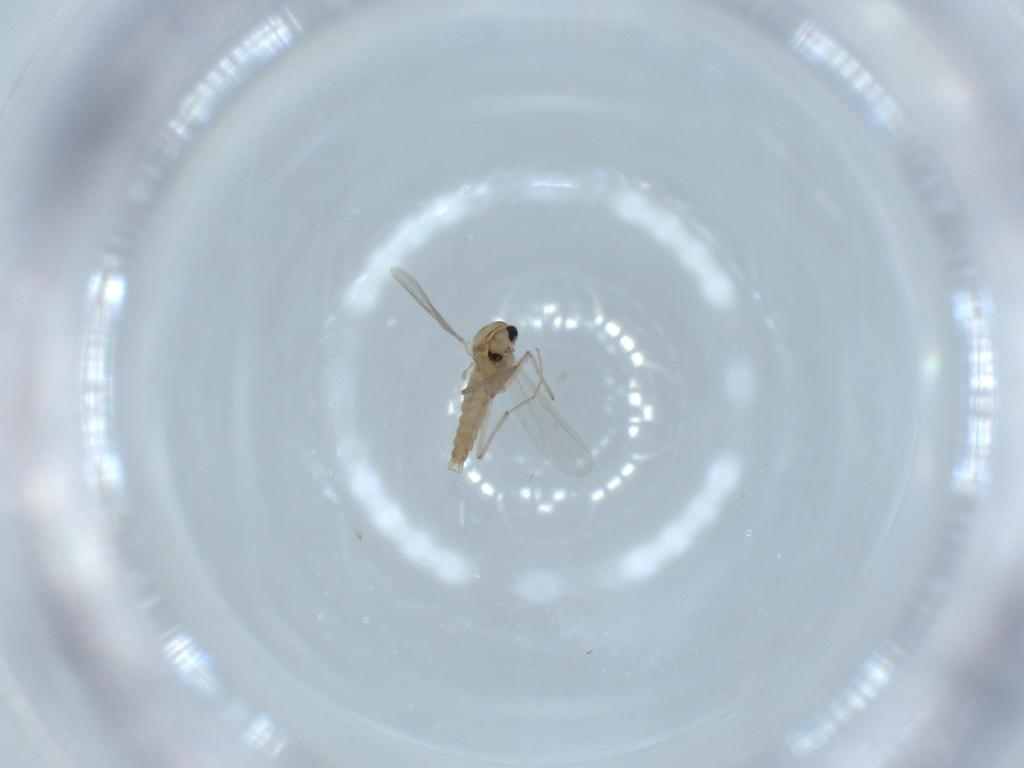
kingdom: Animalia
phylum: Arthropoda
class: Insecta
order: Diptera
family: Chironomidae
